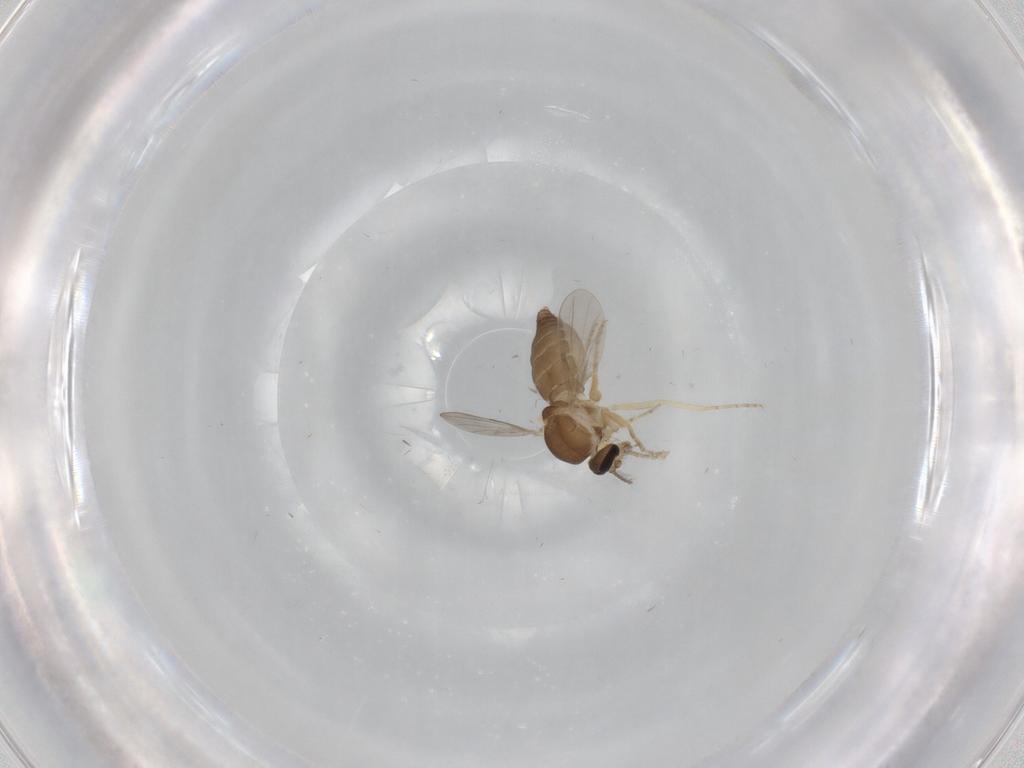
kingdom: Animalia
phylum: Arthropoda
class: Insecta
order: Diptera
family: Ceratopogonidae
